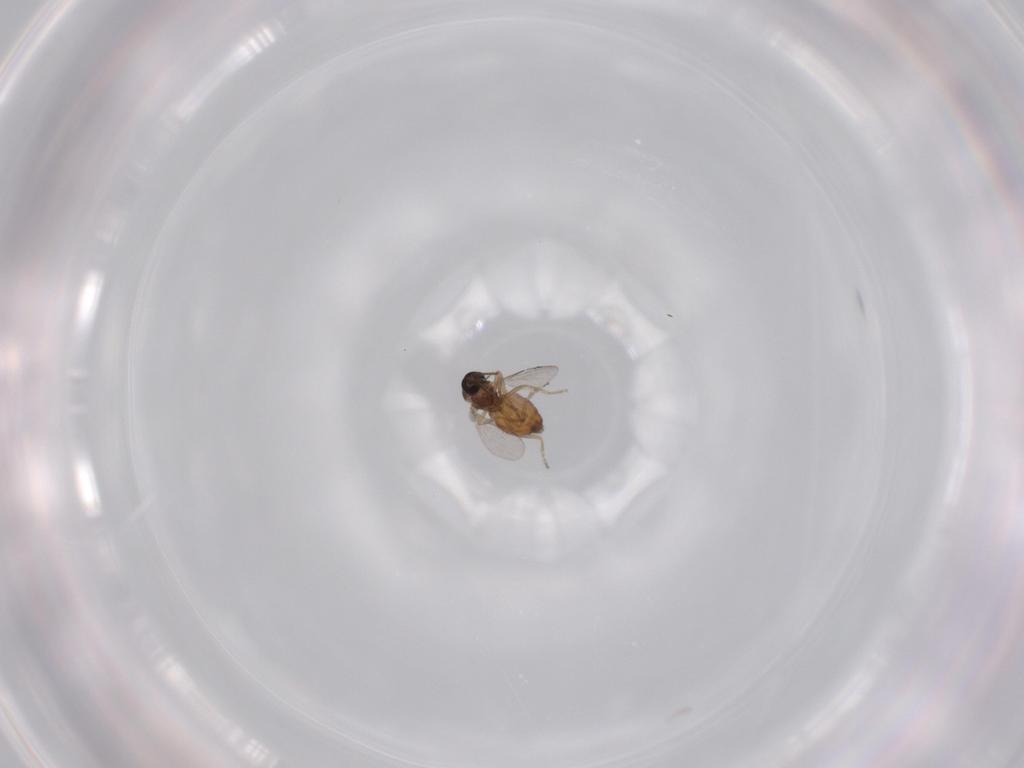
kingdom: Animalia
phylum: Arthropoda
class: Insecta
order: Diptera
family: Ceratopogonidae
